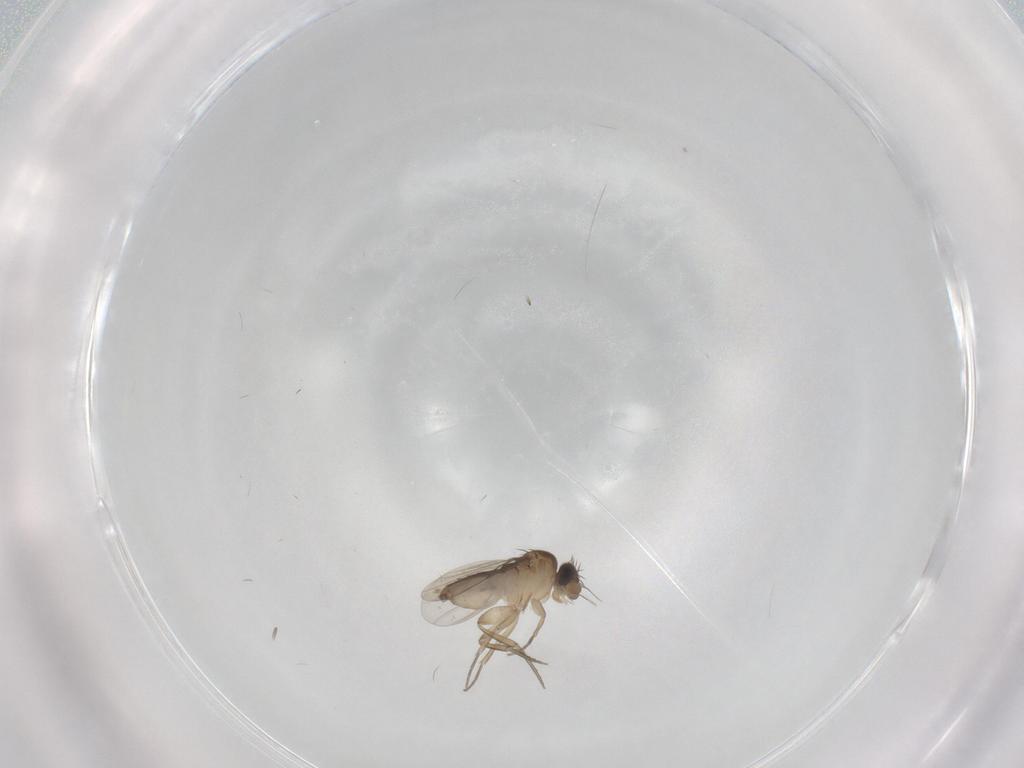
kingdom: Animalia
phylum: Arthropoda
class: Insecta
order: Diptera
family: Phoridae
